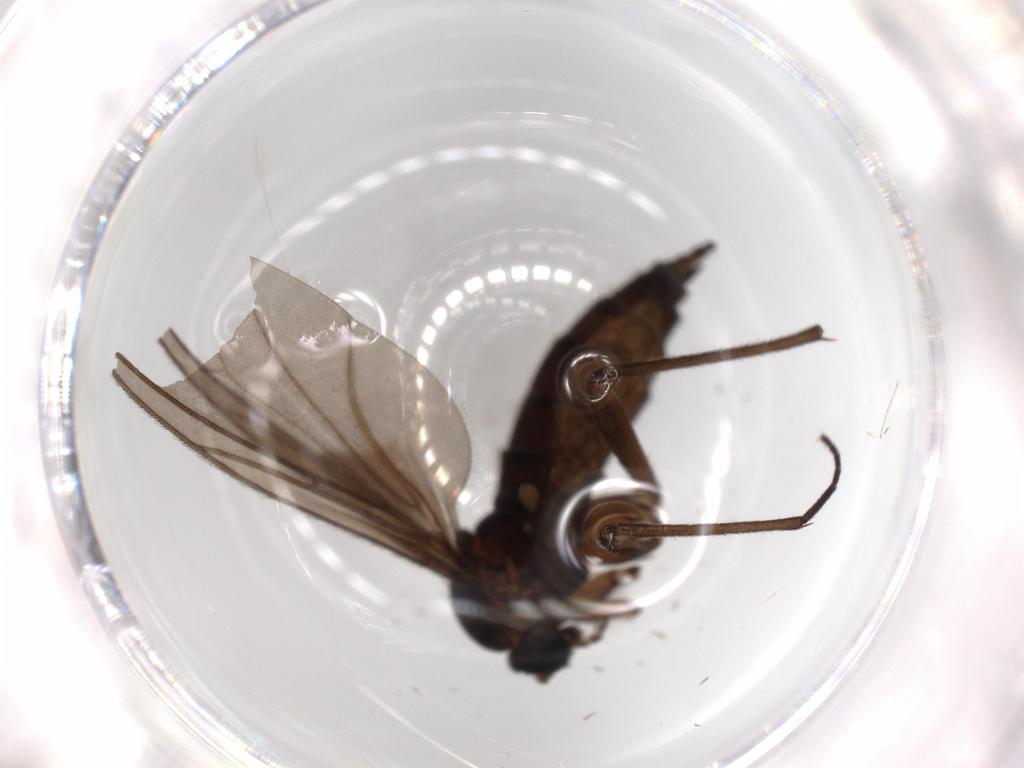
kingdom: Animalia
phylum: Arthropoda
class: Insecta
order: Diptera
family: Sciaridae
